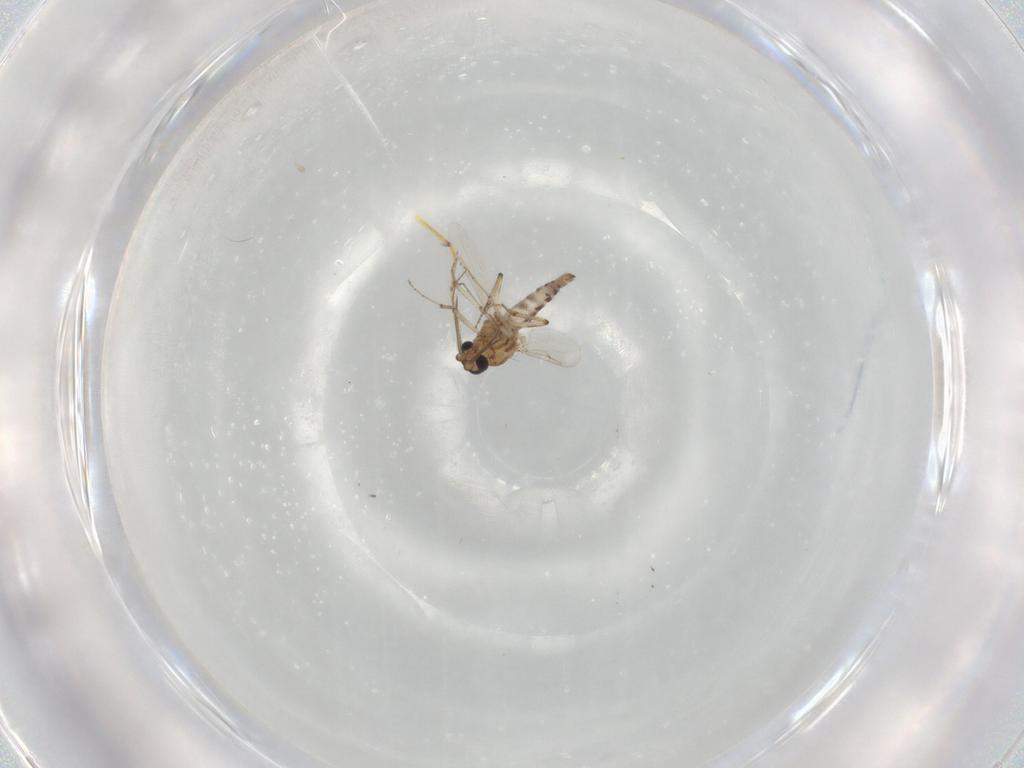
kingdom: Animalia
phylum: Arthropoda
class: Insecta
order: Diptera
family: Ceratopogonidae
